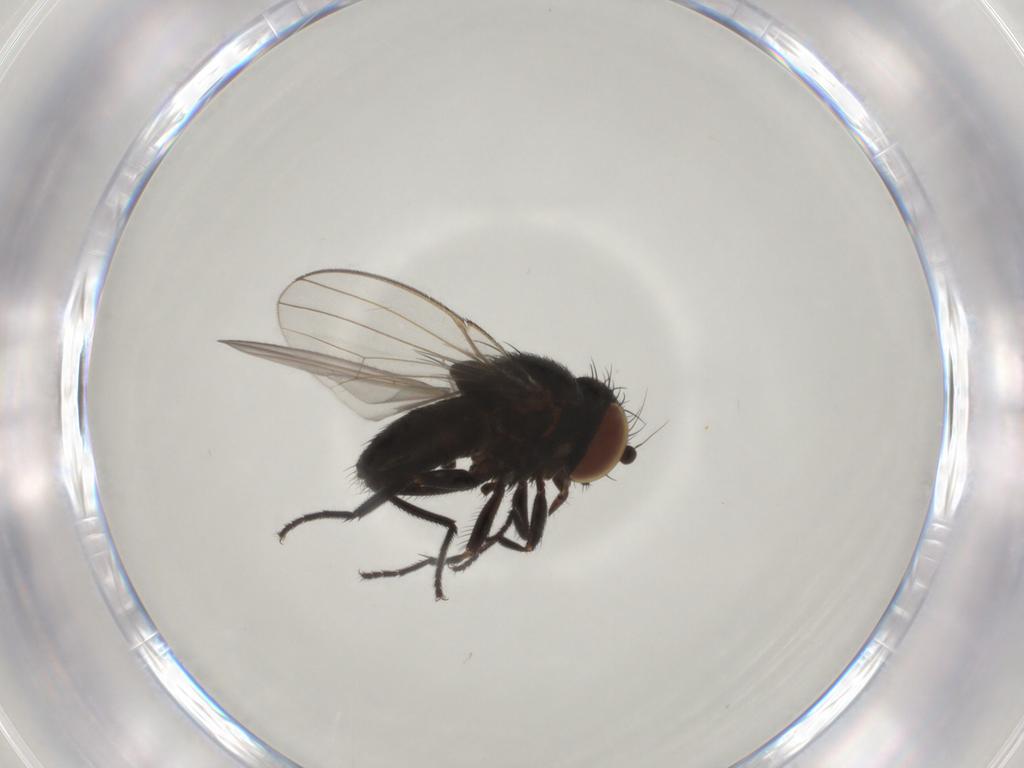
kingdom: Animalia
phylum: Arthropoda
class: Insecta
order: Diptera
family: Milichiidae
